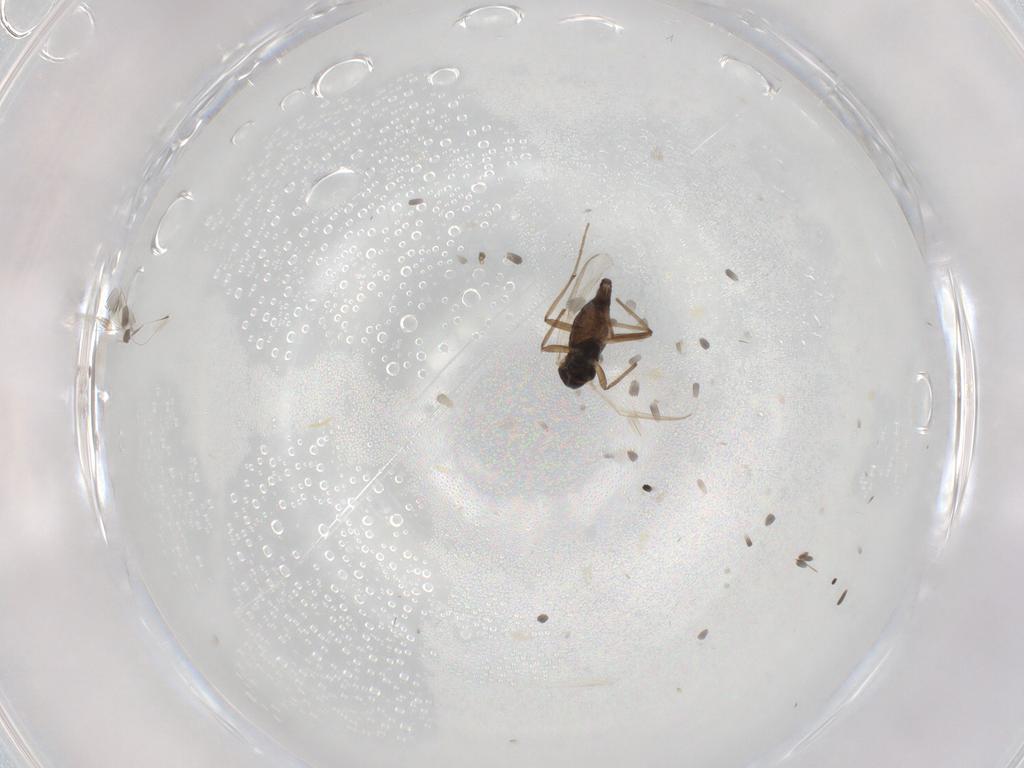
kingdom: Animalia
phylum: Arthropoda
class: Insecta
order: Diptera
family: Chironomidae
